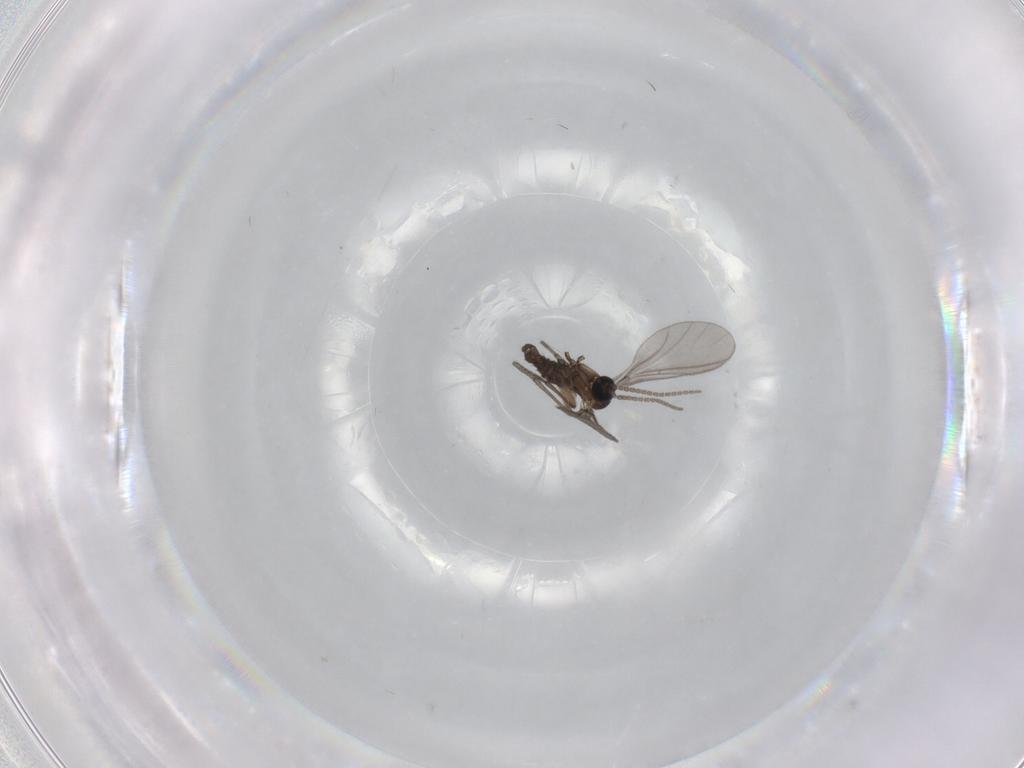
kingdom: Animalia
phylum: Arthropoda
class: Insecta
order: Diptera
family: Sciaridae
